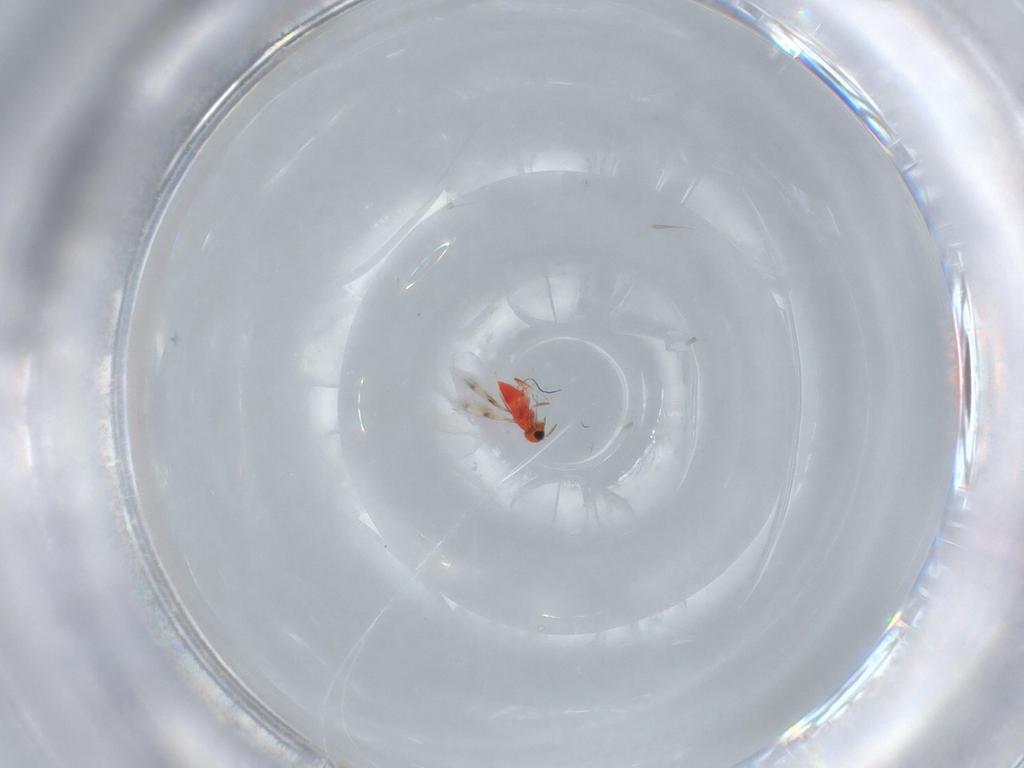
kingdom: Animalia
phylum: Arthropoda
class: Insecta
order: Hymenoptera
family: Trichogrammatidae
